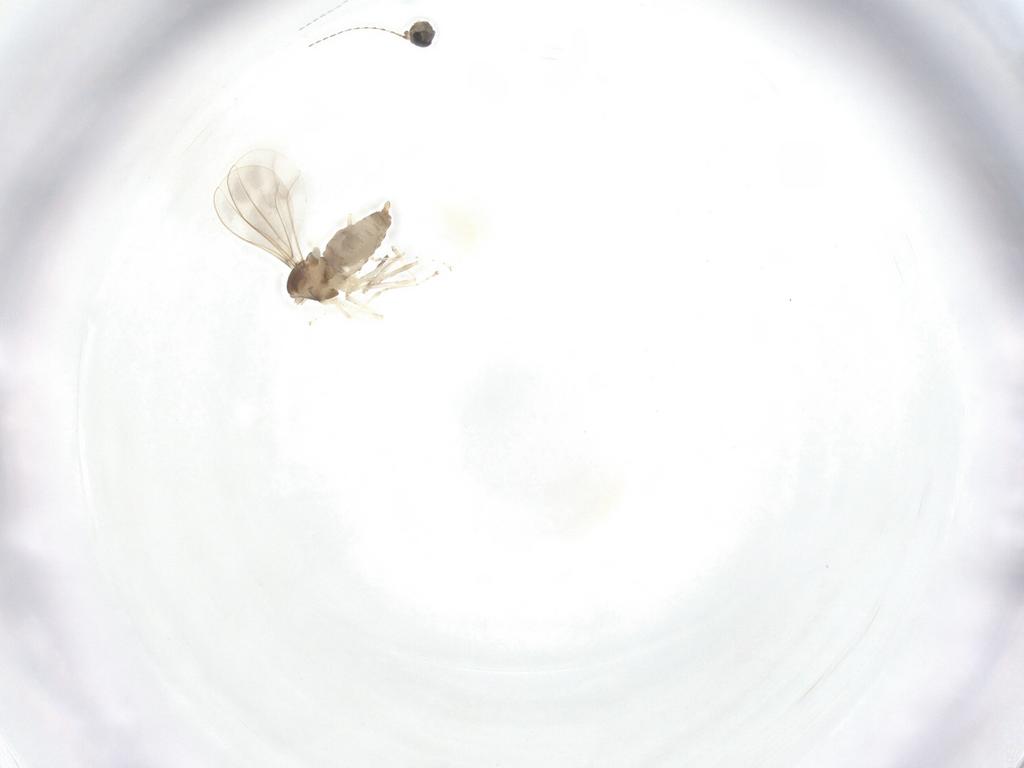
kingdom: Animalia
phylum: Arthropoda
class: Insecta
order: Diptera
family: Cecidomyiidae
